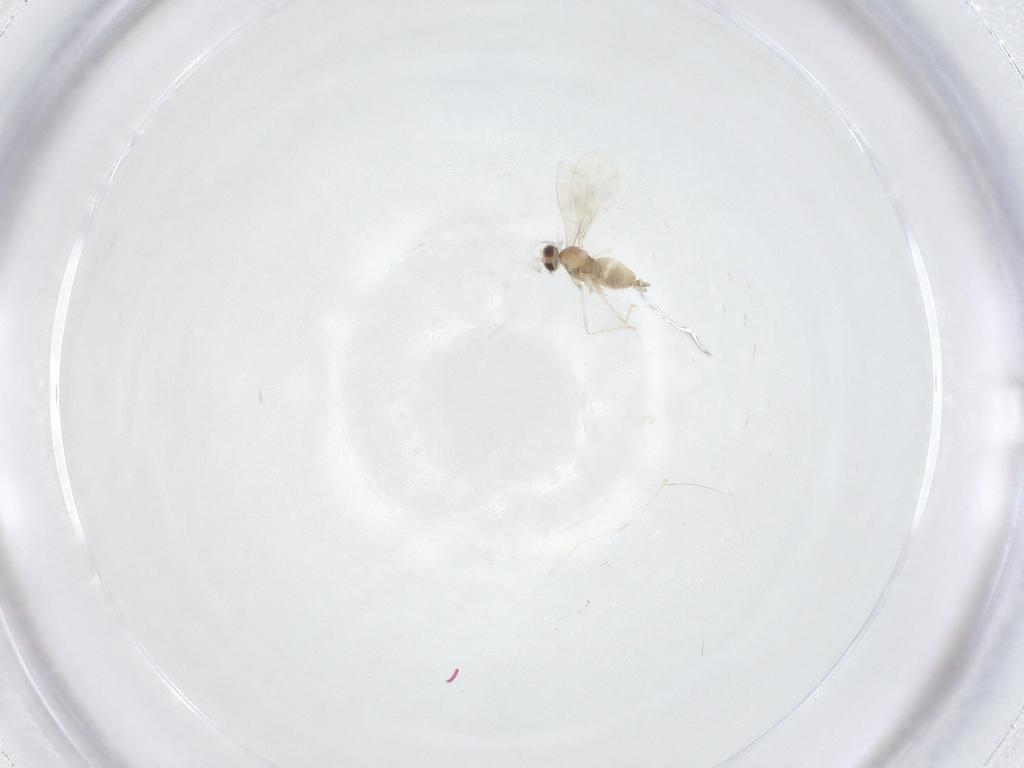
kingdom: Animalia
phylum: Arthropoda
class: Insecta
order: Diptera
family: Cecidomyiidae
